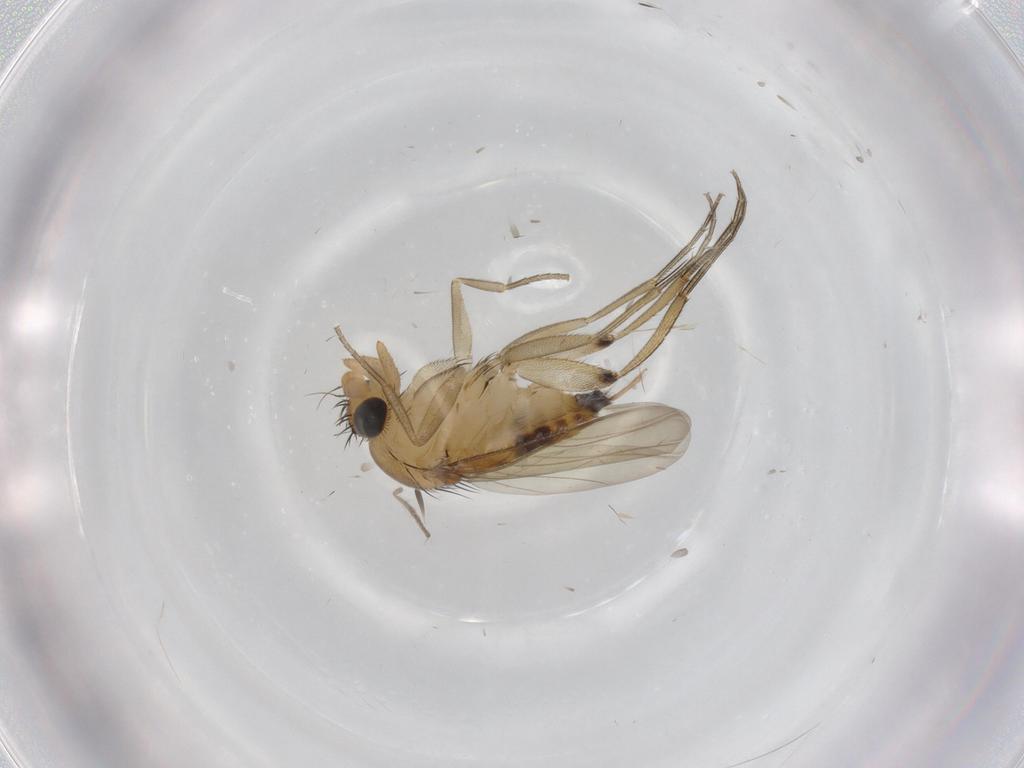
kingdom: Animalia
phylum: Arthropoda
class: Insecta
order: Diptera
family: Phoridae
